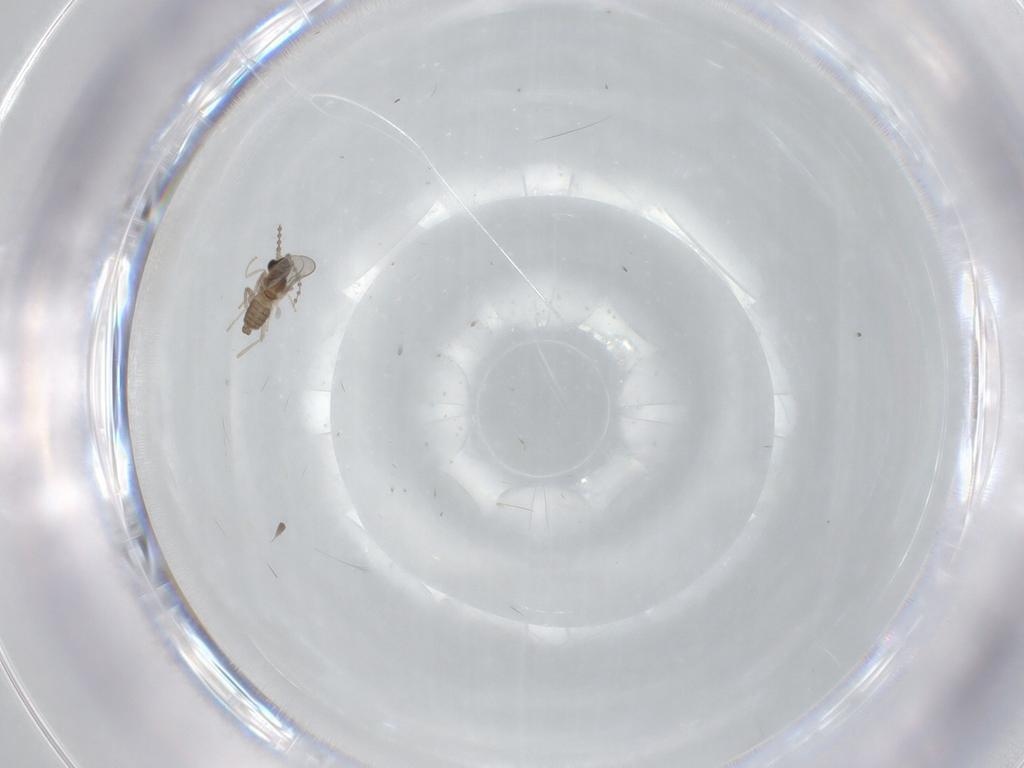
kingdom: Animalia
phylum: Arthropoda
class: Insecta
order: Diptera
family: Cecidomyiidae
